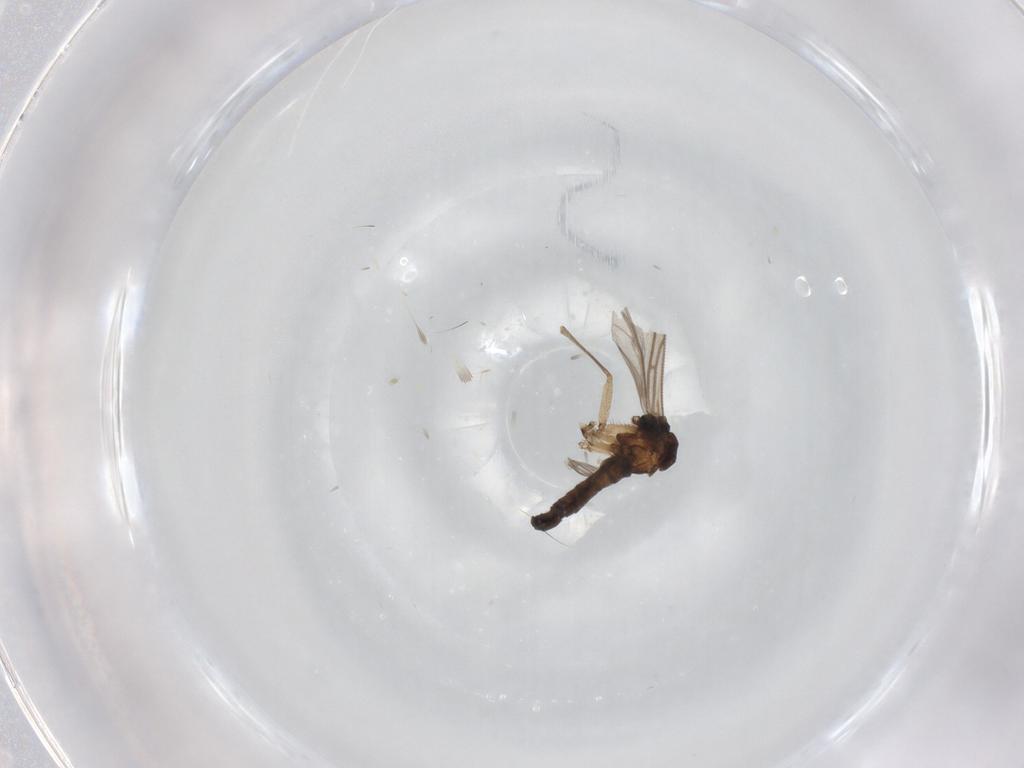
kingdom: Animalia
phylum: Arthropoda
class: Insecta
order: Diptera
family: Sciaridae
